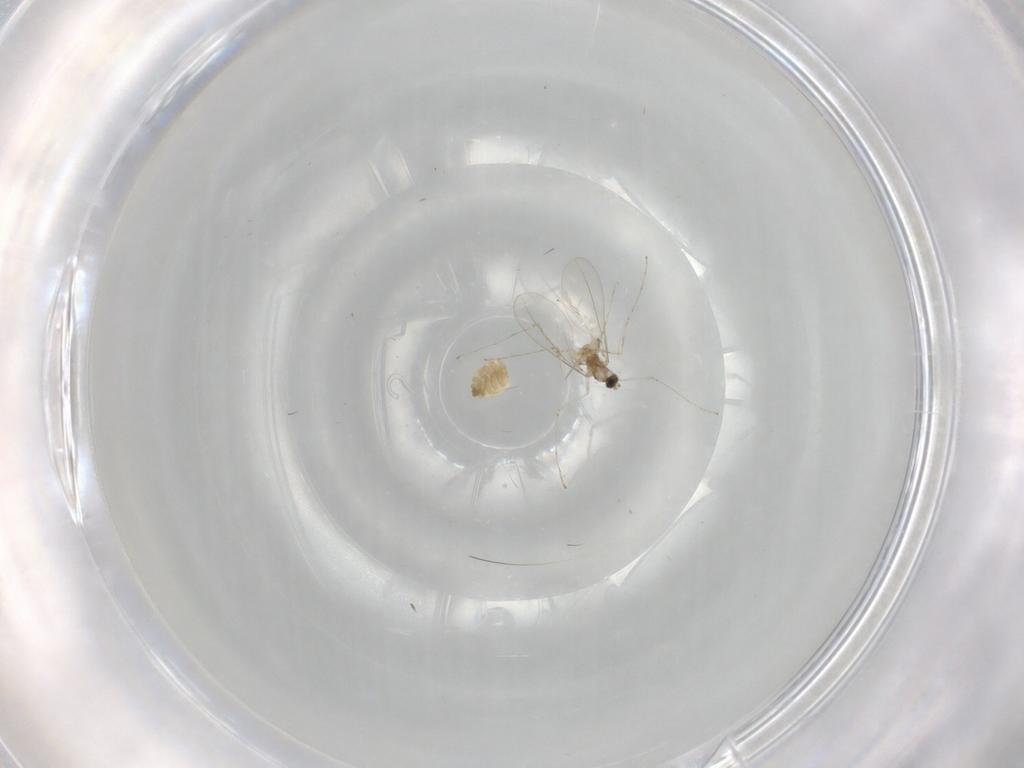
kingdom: Animalia
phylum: Arthropoda
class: Insecta
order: Diptera
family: Cecidomyiidae
